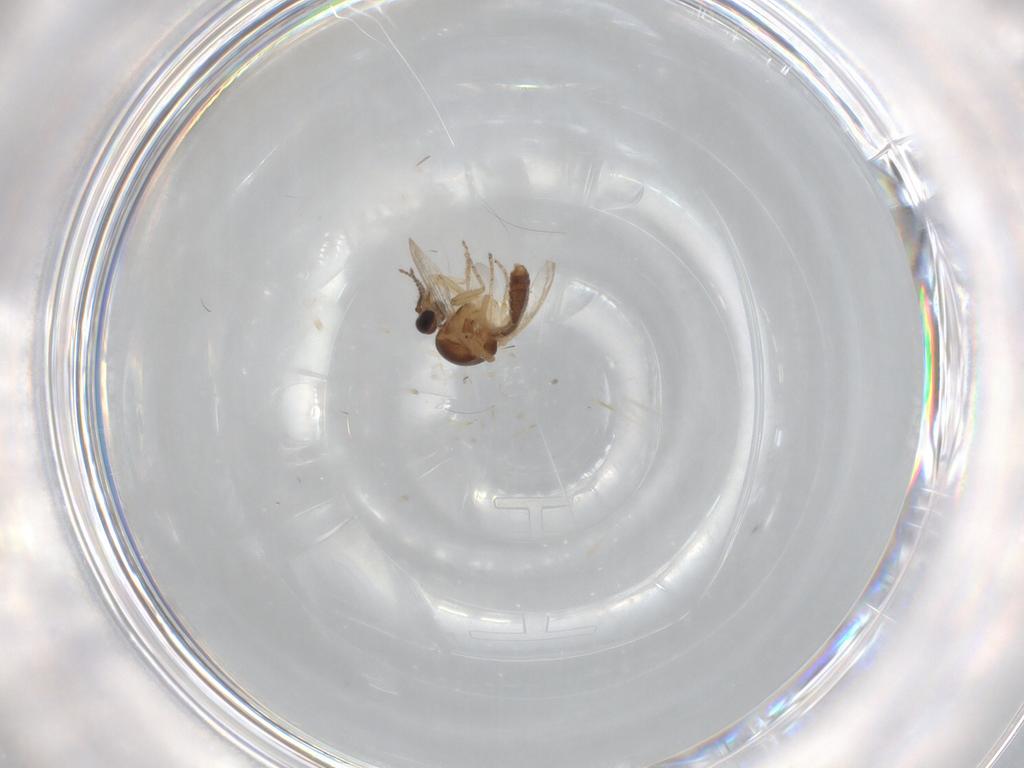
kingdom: Animalia
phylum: Arthropoda
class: Insecta
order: Diptera
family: Ceratopogonidae
